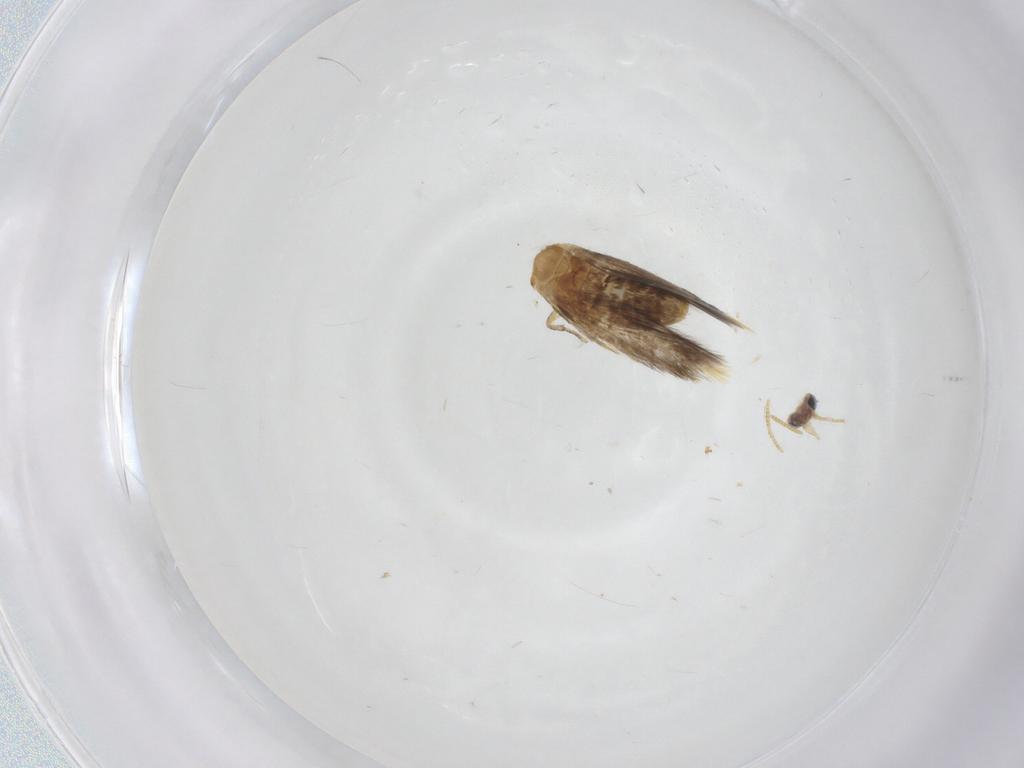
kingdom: Animalia
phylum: Arthropoda
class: Insecta
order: Lepidoptera
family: Copromorphidae
